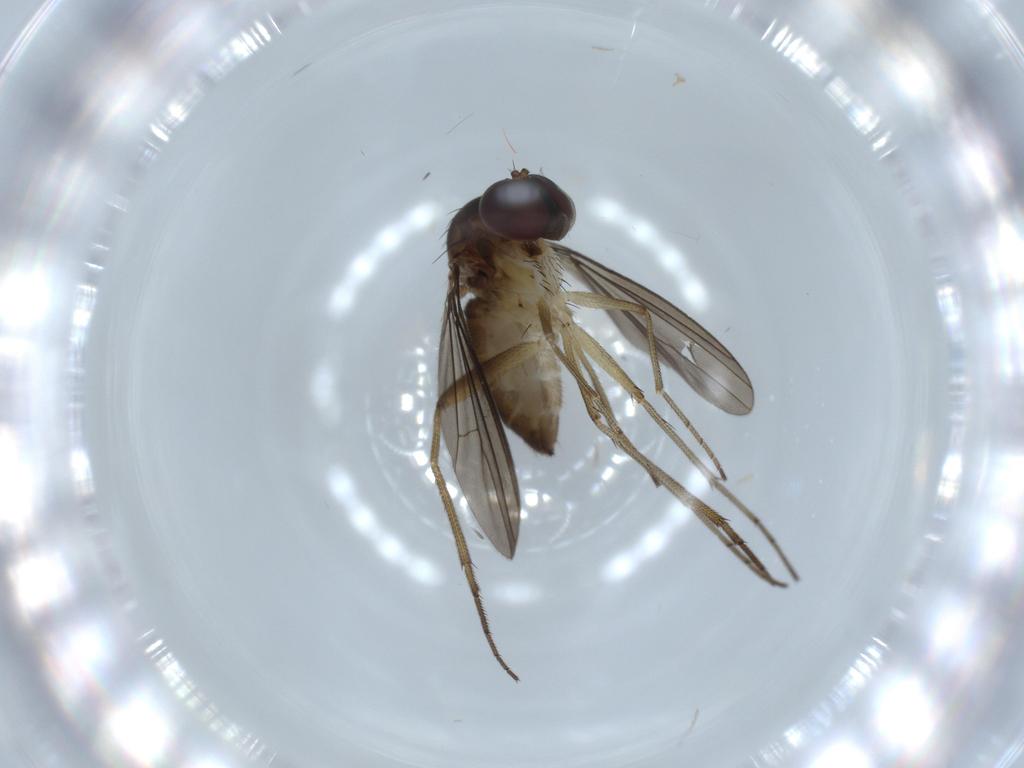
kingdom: Animalia
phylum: Arthropoda
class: Insecta
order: Diptera
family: Dolichopodidae
